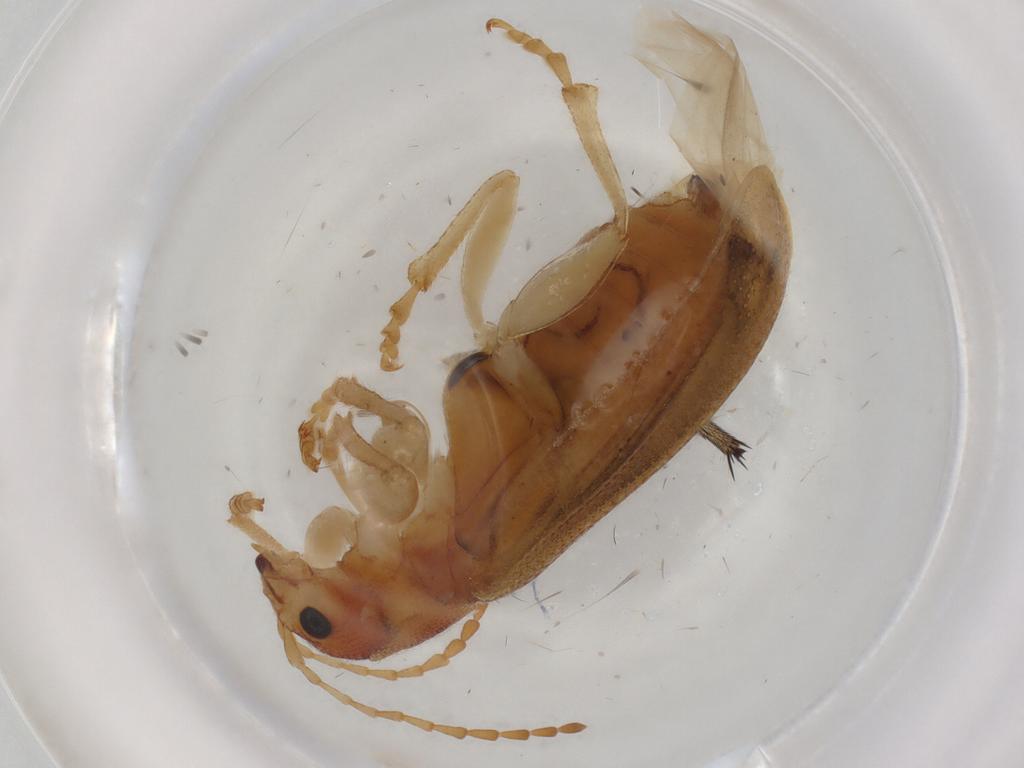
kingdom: Animalia
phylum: Arthropoda
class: Insecta
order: Coleoptera
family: Chrysomelidae
